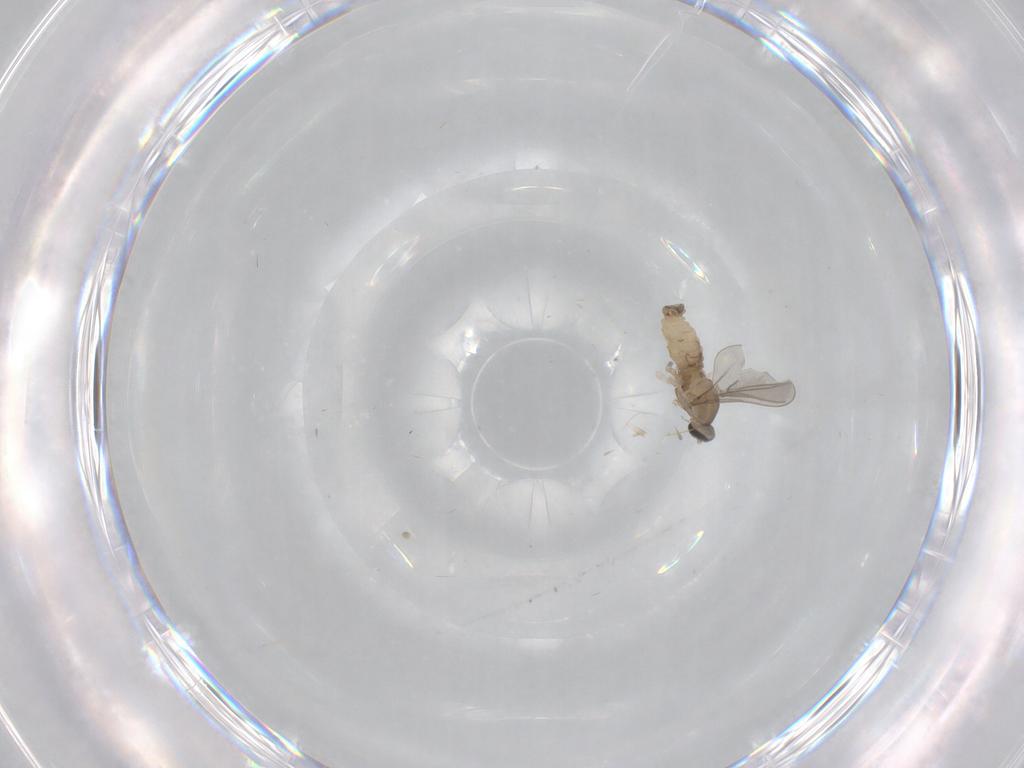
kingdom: Animalia
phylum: Arthropoda
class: Insecta
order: Diptera
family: Cecidomyiidae
